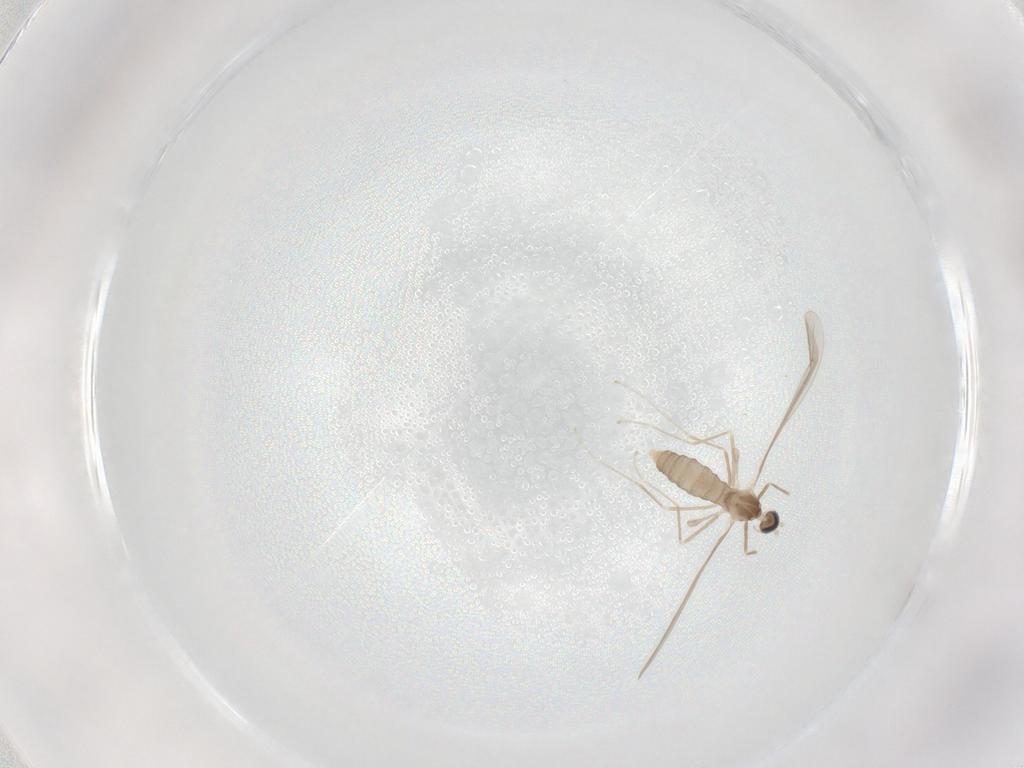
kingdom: Animalia
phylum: Arthropoda
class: Insecta
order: Diptera
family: Cecidomyiidae
